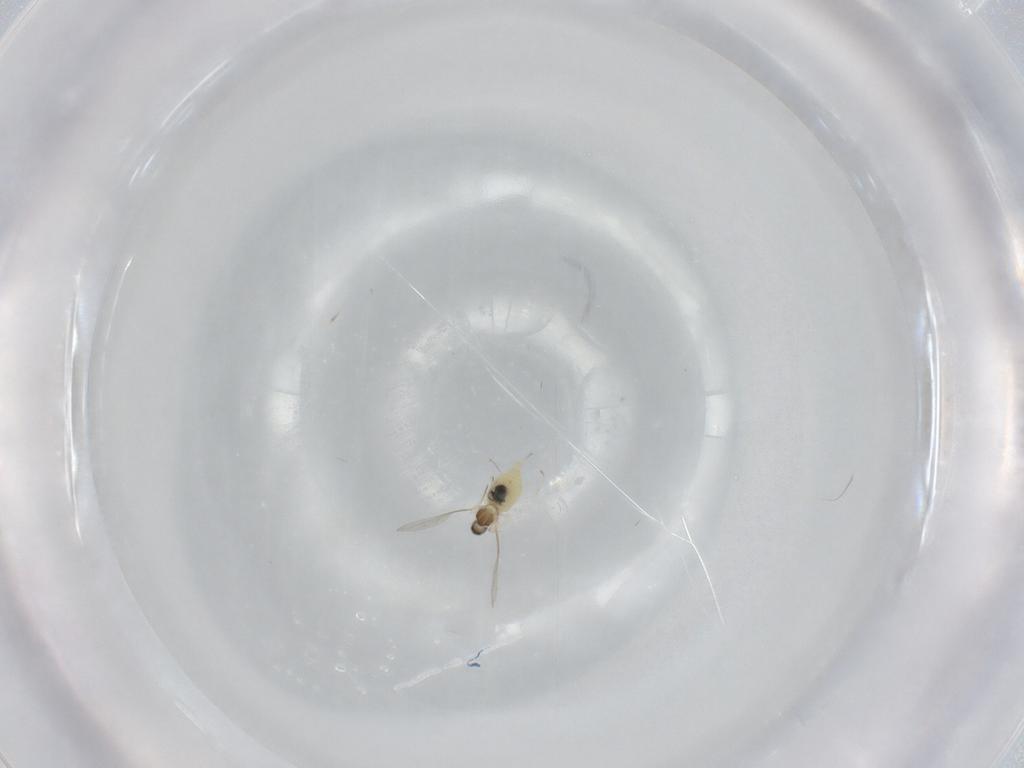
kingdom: Animalia
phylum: Arthropoda
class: Insecta
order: Diptera
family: Cecidomyiidae
